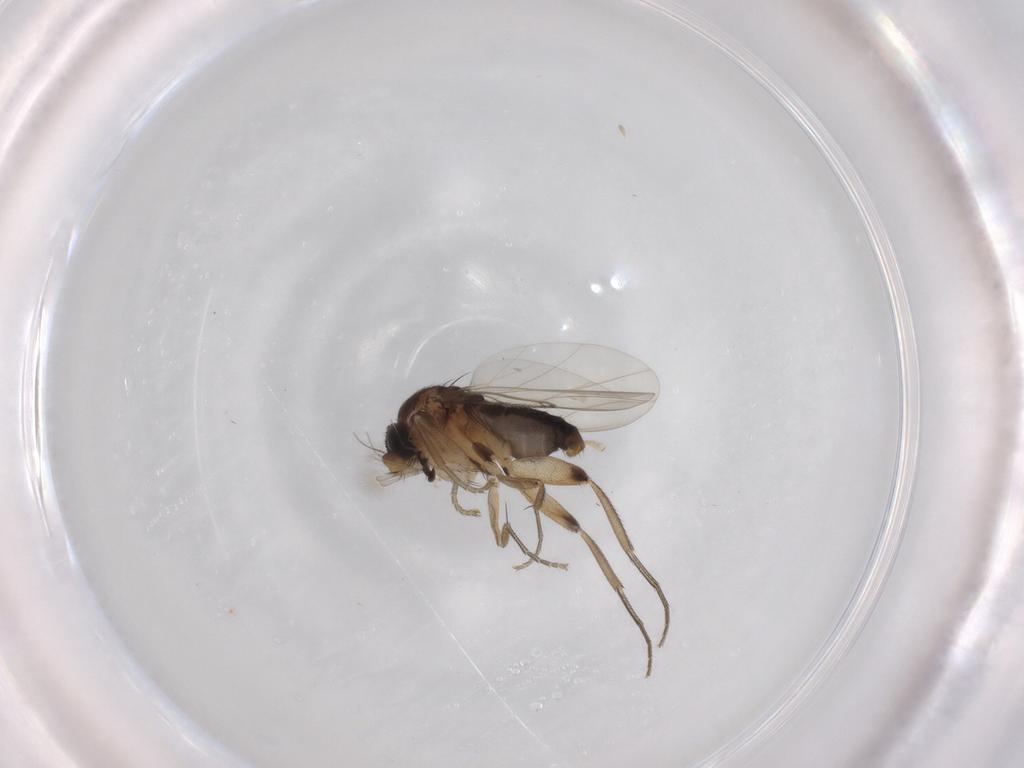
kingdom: Animalia
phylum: Arthropoda
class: Insecta
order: Diptera
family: Phoridae
